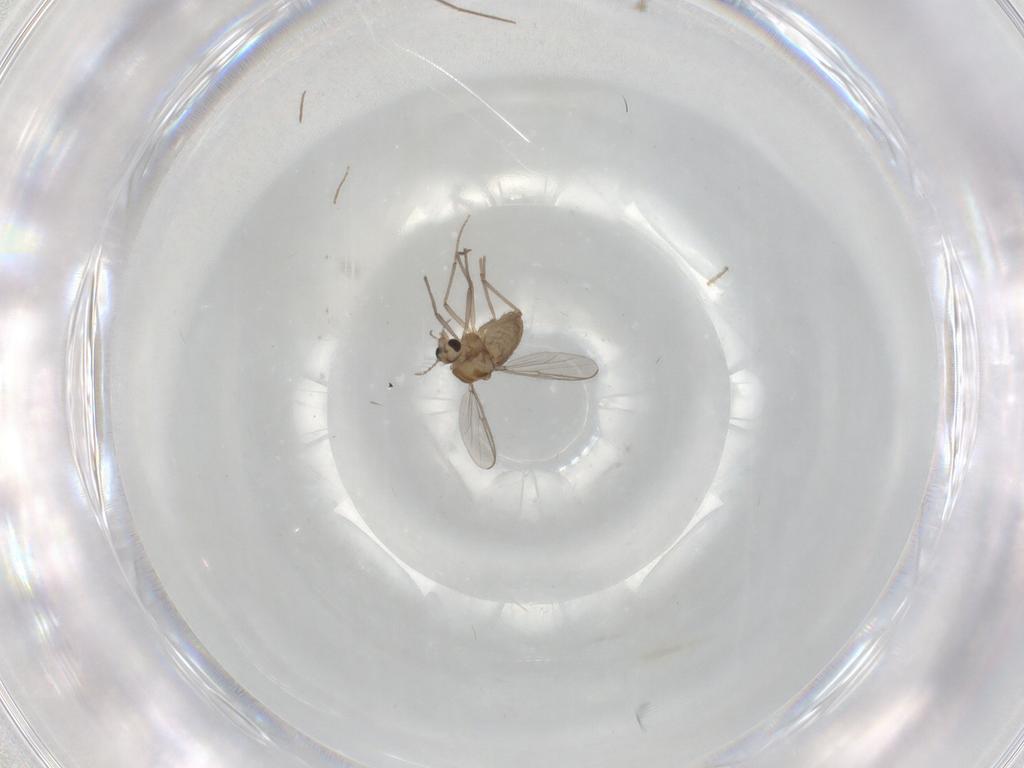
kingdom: Animalia
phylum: Arthropoda
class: Insecta
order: Diptera
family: Chironomidae
